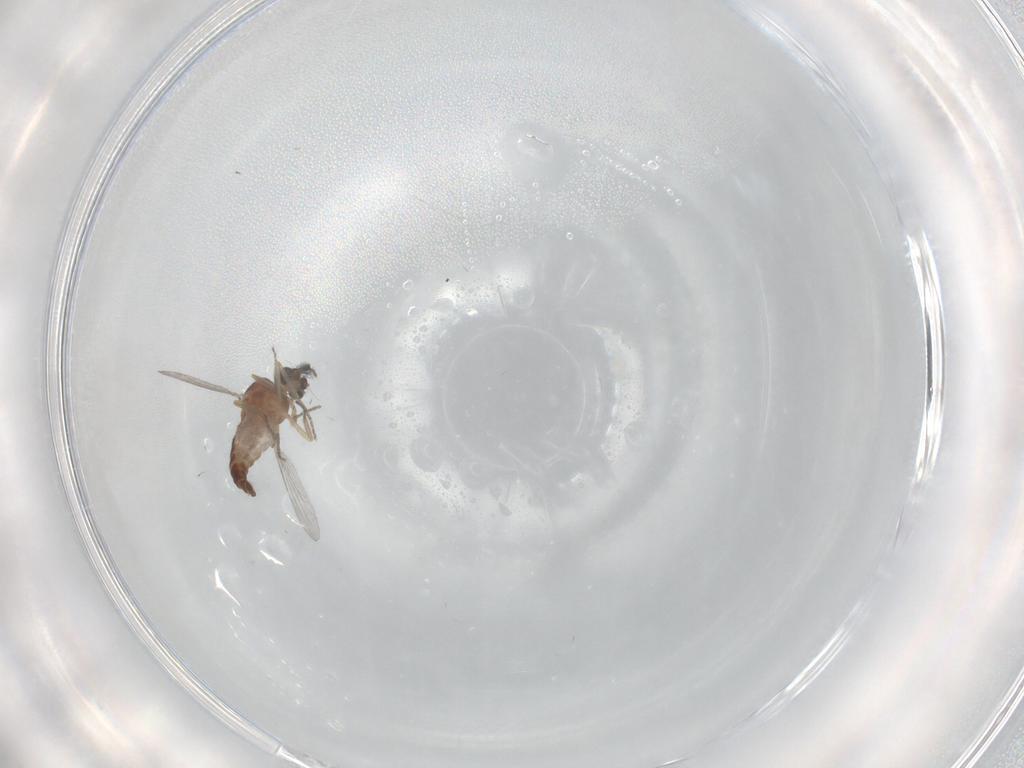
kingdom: Animalia
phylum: Arthropoda
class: Insecta
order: Diptera
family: Ceratopogonidae
